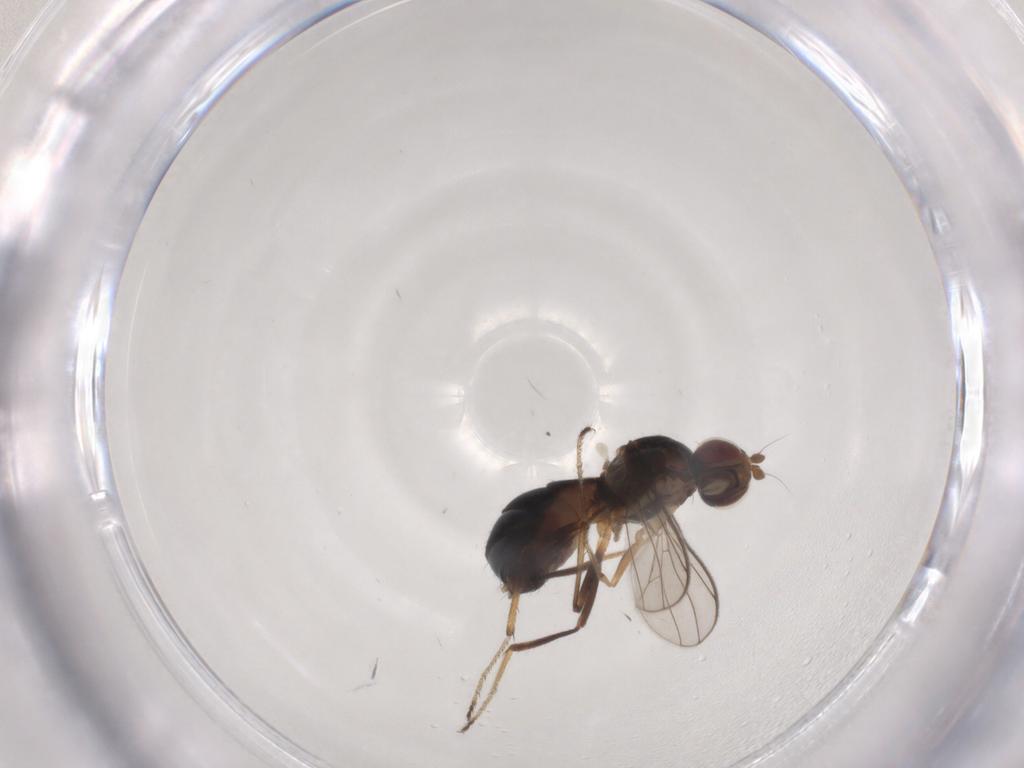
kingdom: Animalia
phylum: Arthropoda
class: Insecta
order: Diptera
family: Sepsidae
